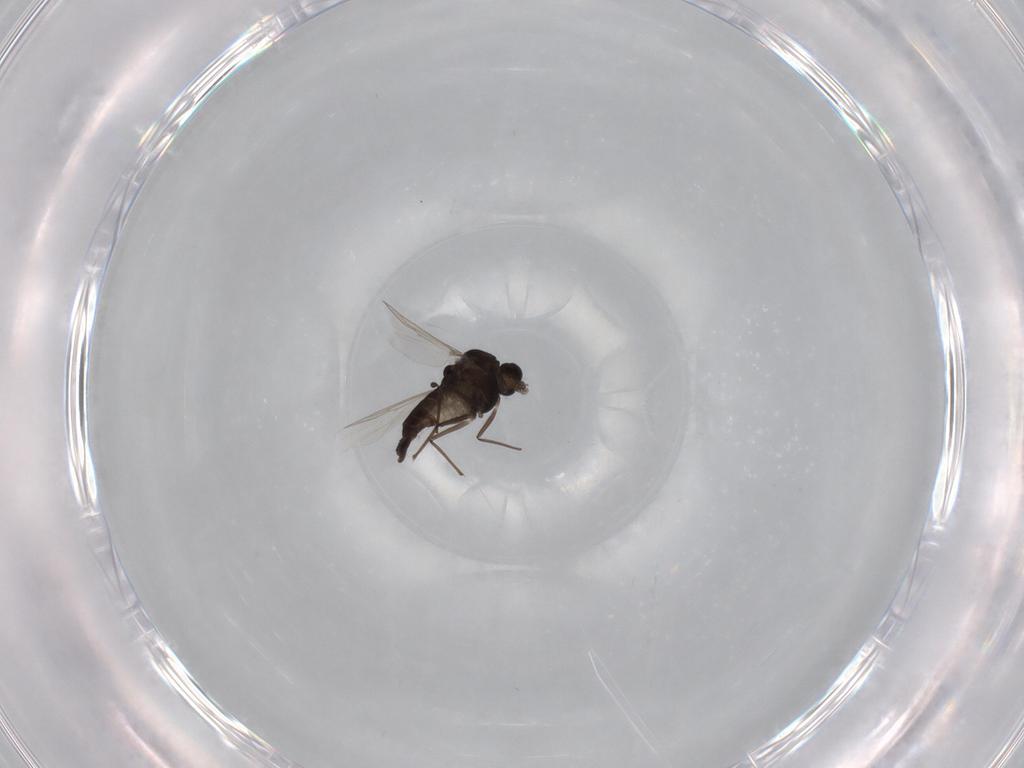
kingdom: Animalia
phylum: Arthropoda
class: Insecta
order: Diptera
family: Chironomidae
